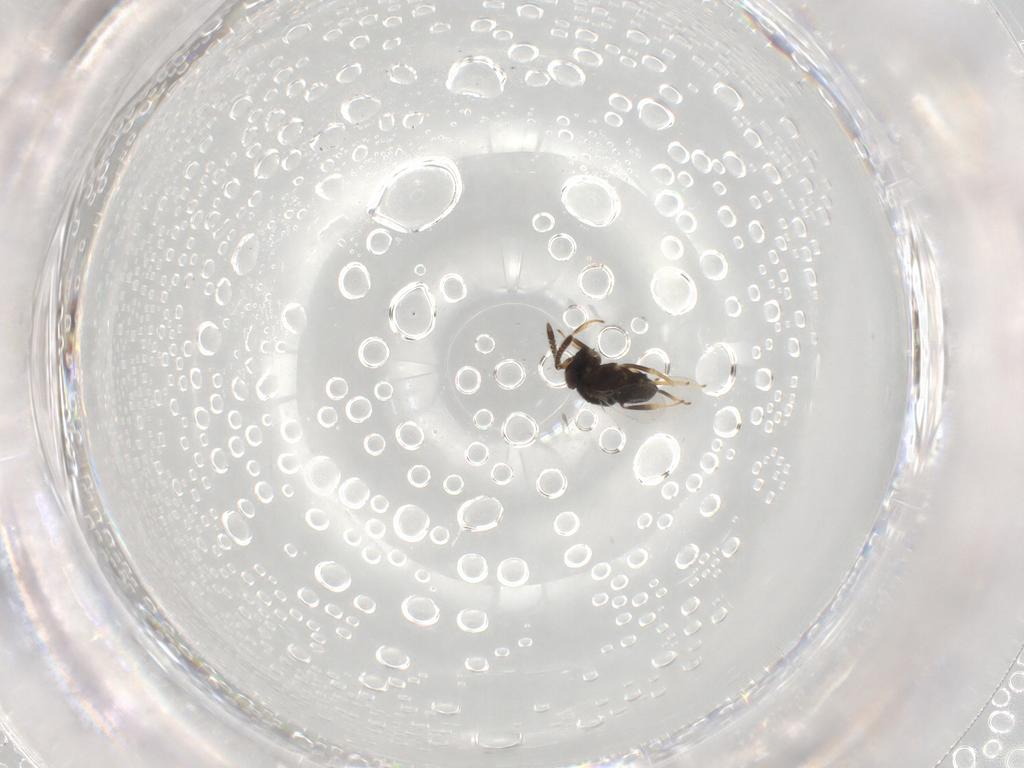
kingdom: Animalia
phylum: Arthropoda
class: Insecta
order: Hymenoptera
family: Encyrtidae
